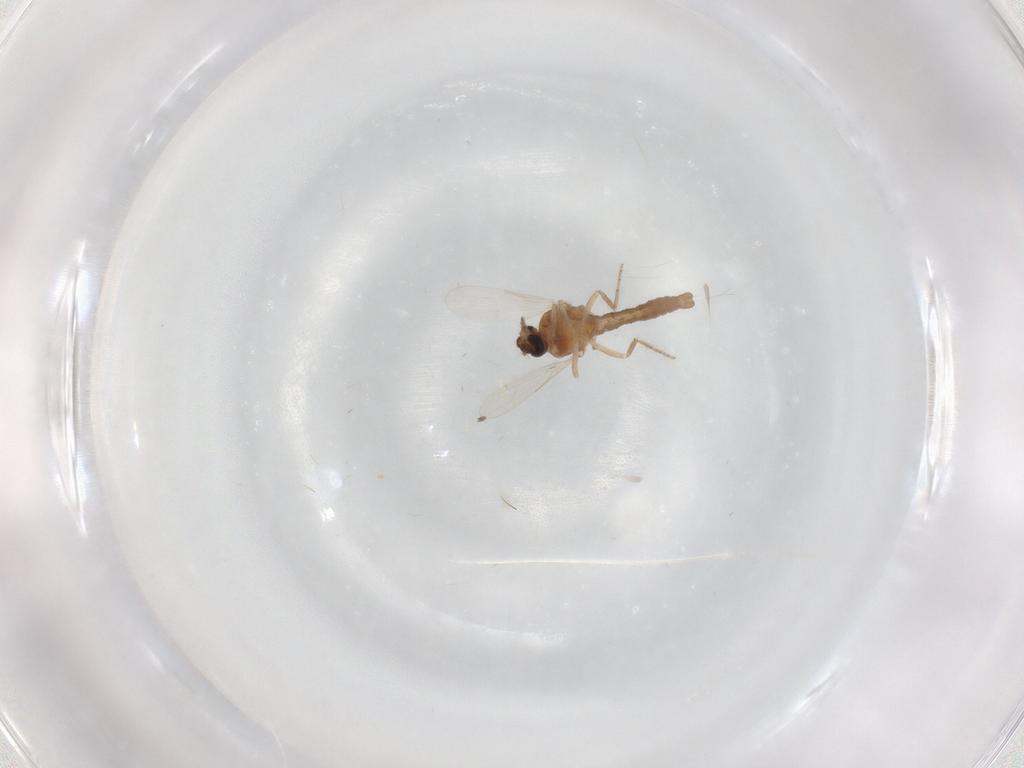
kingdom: Animalia
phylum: Arthropoda
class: Insecta
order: Diptera
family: Ceratopogonidae
